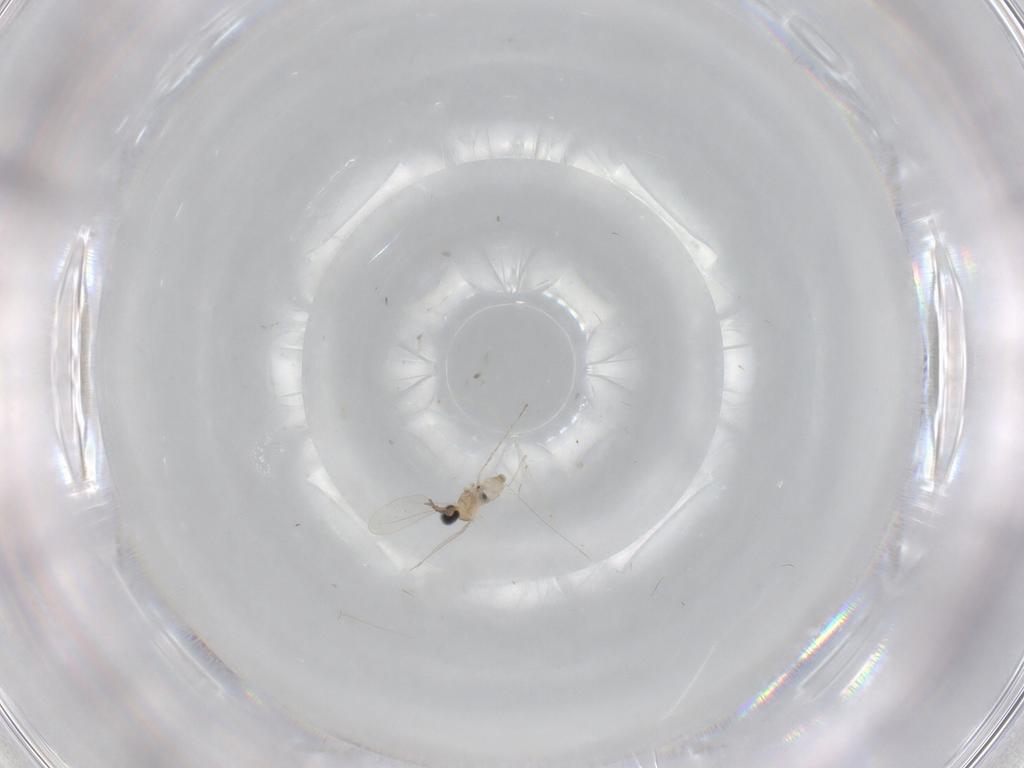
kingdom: Animalia
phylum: Arthropoda
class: Insecta
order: Diptera
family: Cecidomyiidae
